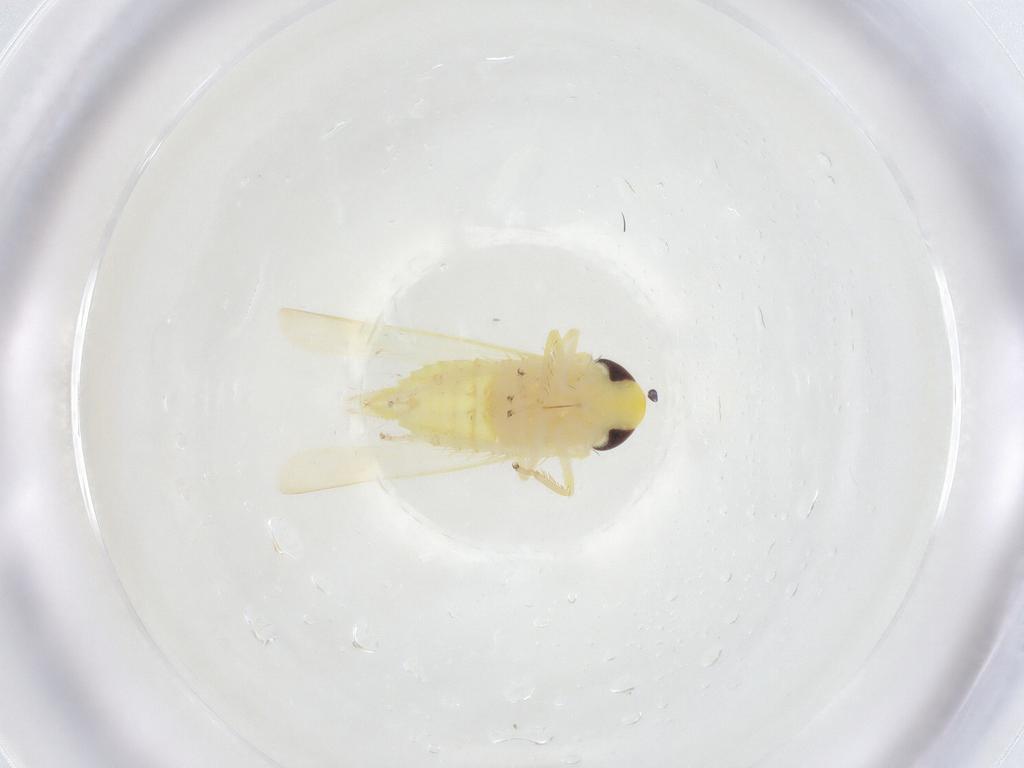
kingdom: Animalia
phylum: Arthropoda
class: Insecta
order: Hemiptera
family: Cicadellidae
